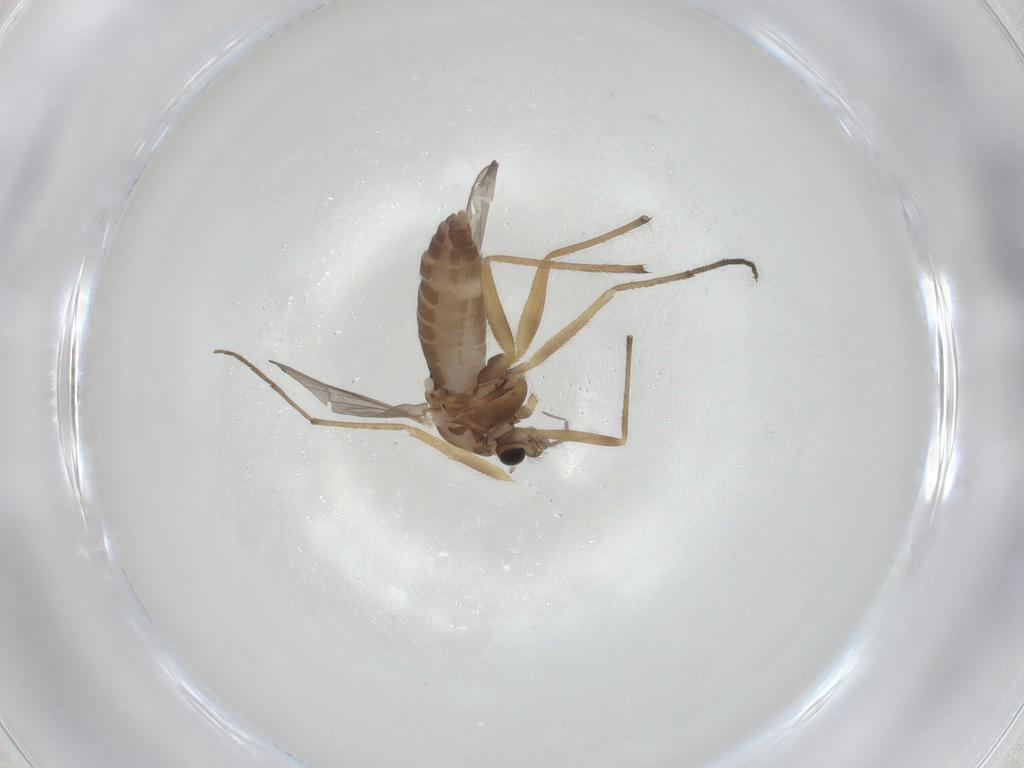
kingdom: Animalia
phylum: Arthropoda
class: Insecta
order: Diptera
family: Chironomidae
